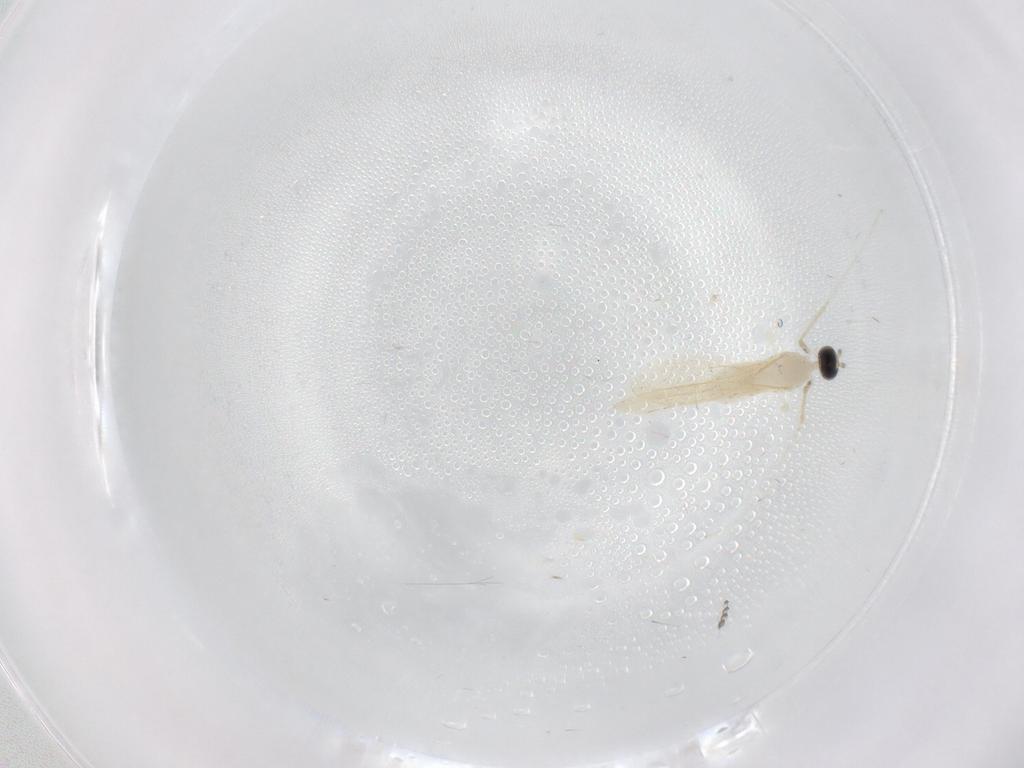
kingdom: Animalia
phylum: Arthropoda
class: Insecta
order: Diptera
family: Cecidomyiidae
